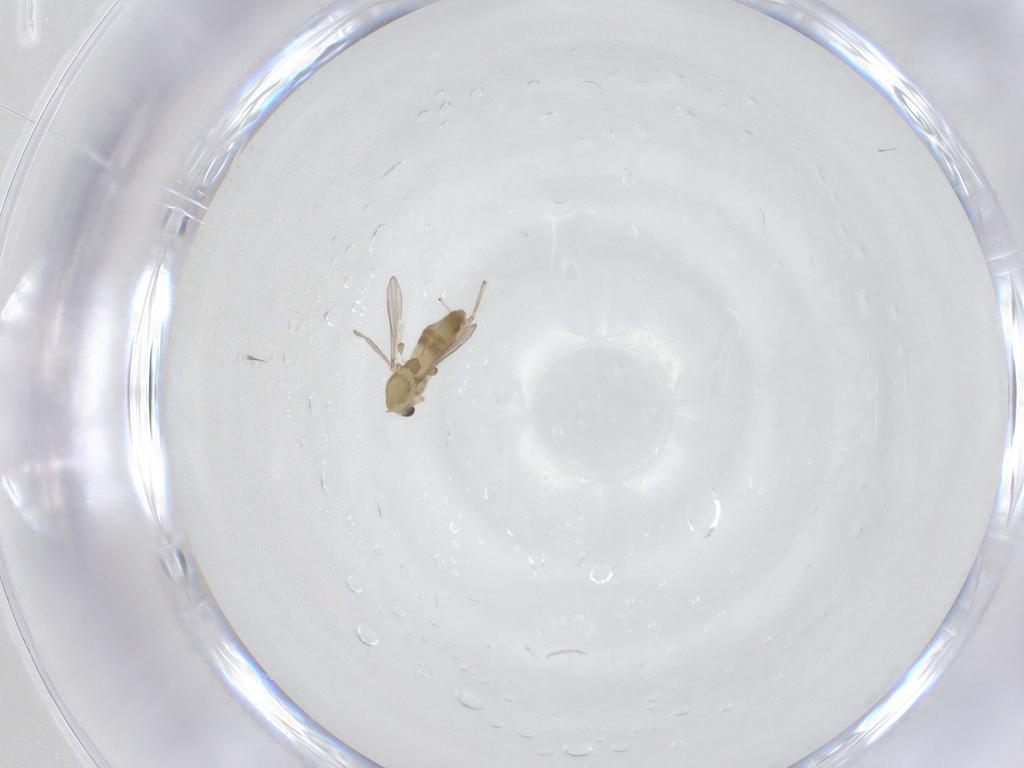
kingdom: Animalia
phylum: Arthropoda
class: Insecta
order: Diptera
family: Chironomidae
